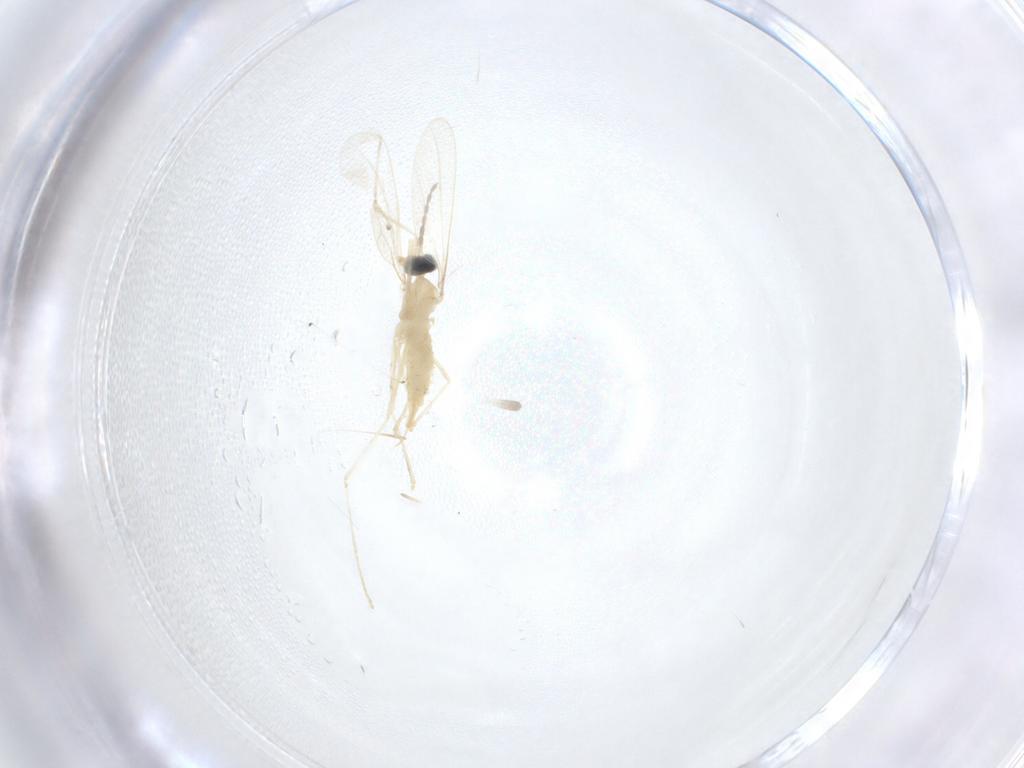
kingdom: Animalia
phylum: Arthropoda
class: Insecta
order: Diptera
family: Cecidomyiidae
